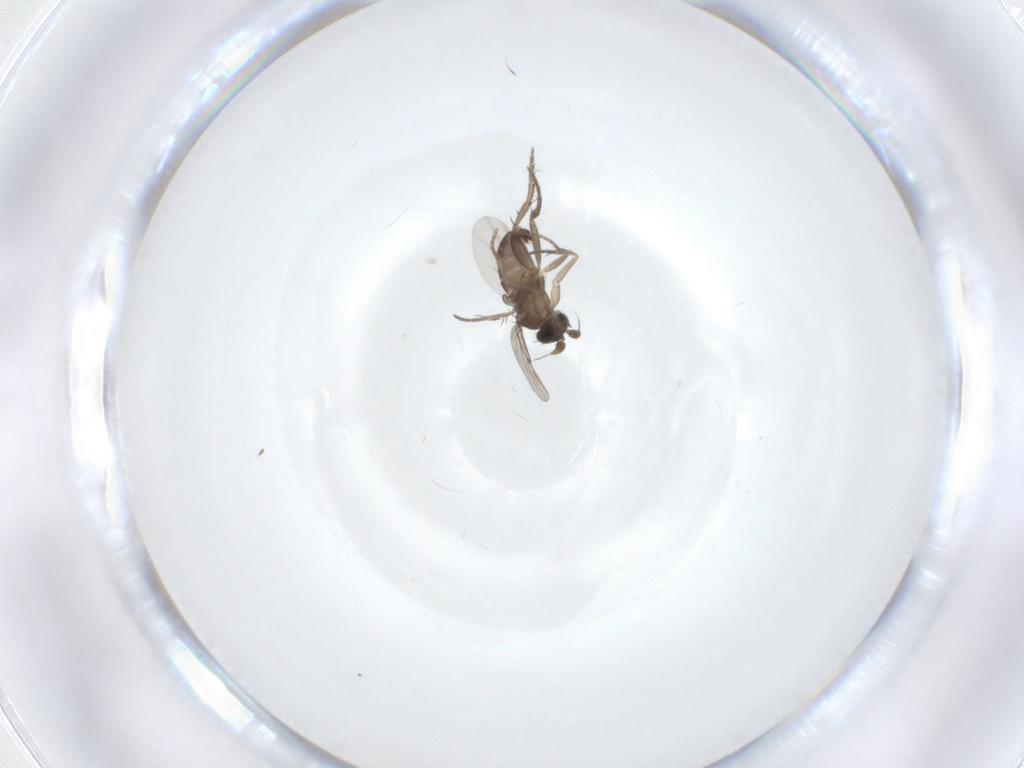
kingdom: Animalia
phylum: Arthropoda
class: Insecta
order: Diptera
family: Phoridae
